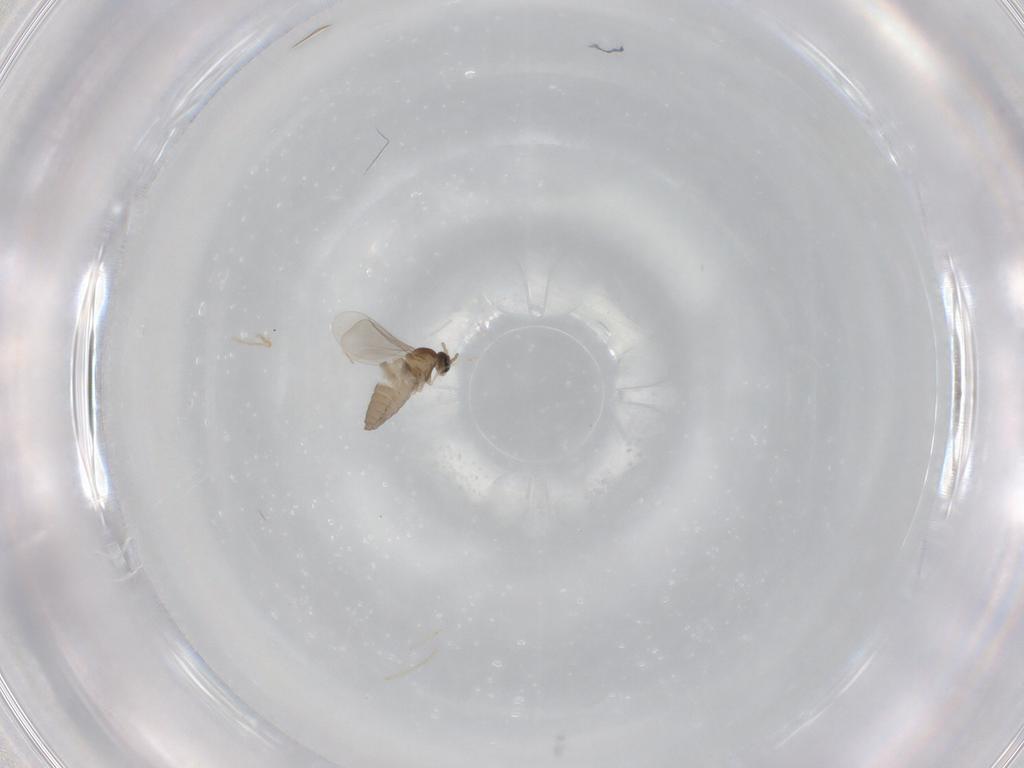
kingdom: Animalia
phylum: Arthropoda
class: Insecta
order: Diptera
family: Cecidomyiidae
